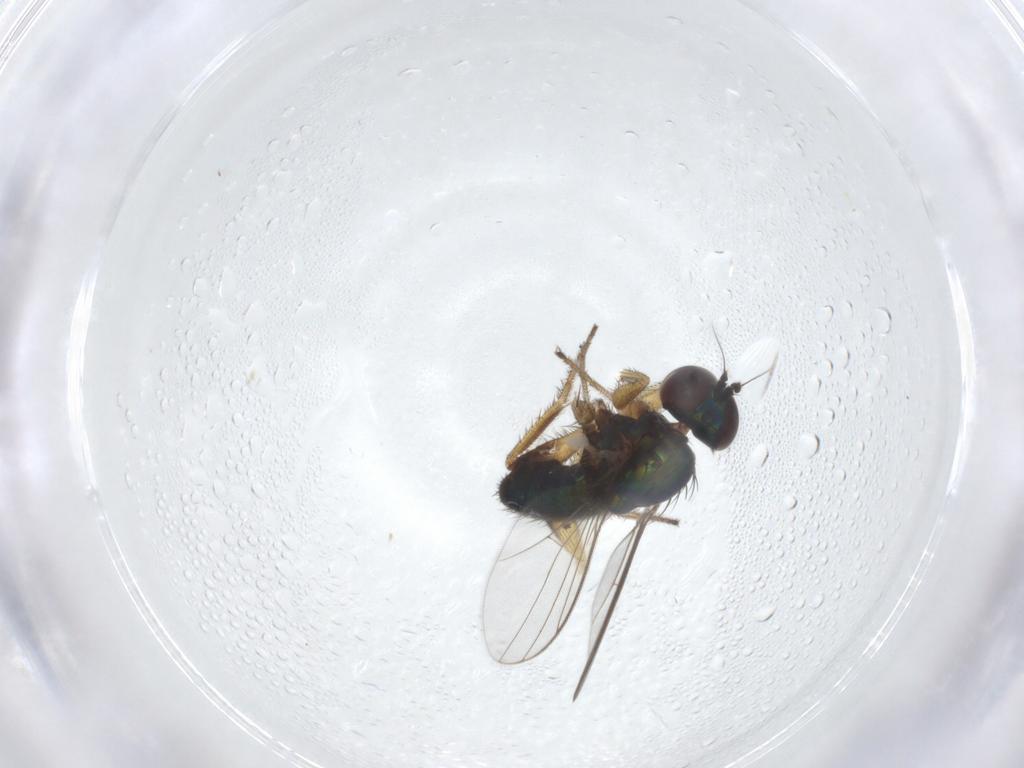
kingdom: Animalia
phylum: Arthropoda
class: Insecta
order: Diptera
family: Dolichopodidae
